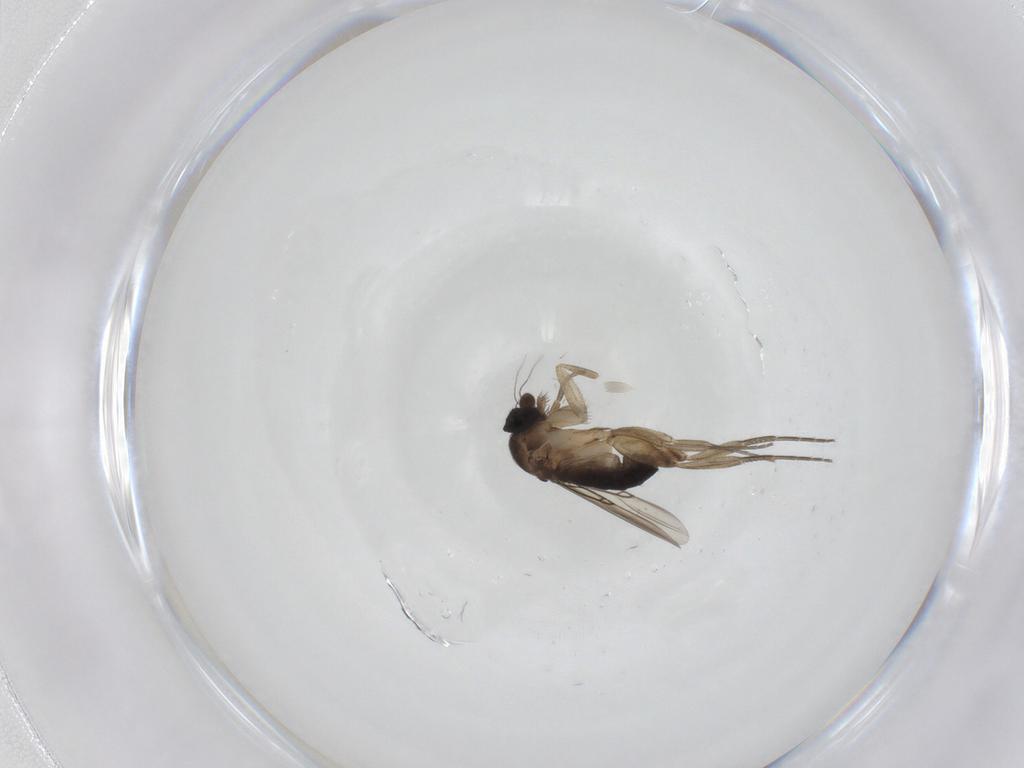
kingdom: Animalia
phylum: Arthropoda
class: Insecta
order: Diptera
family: Phoridae
